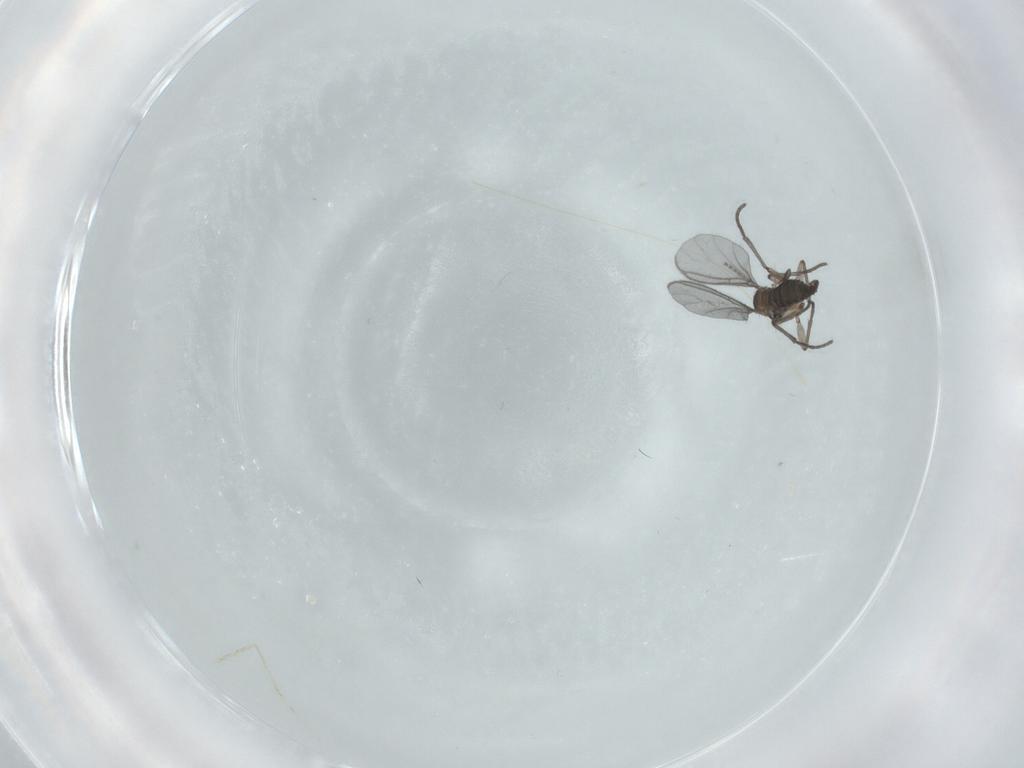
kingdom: Animalia
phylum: Arthropoda
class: Insecta
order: Diptera
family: Sciaridae
